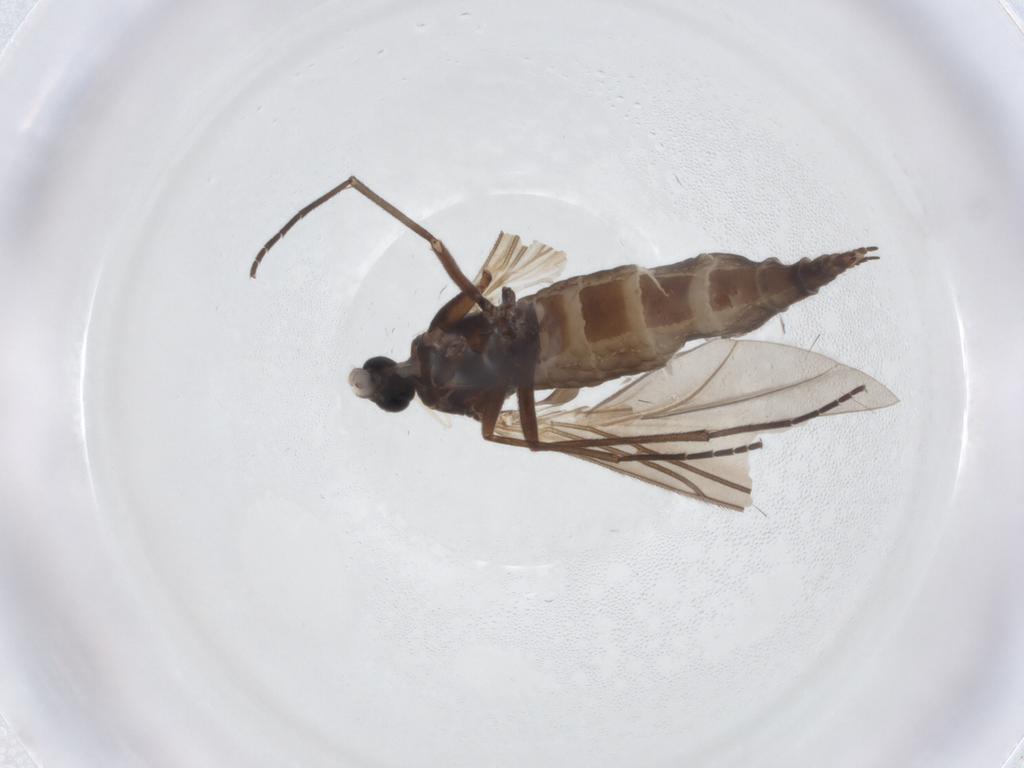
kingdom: Animalia
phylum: Arthropoda
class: Insecta
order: Diptera
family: Sciaridae
